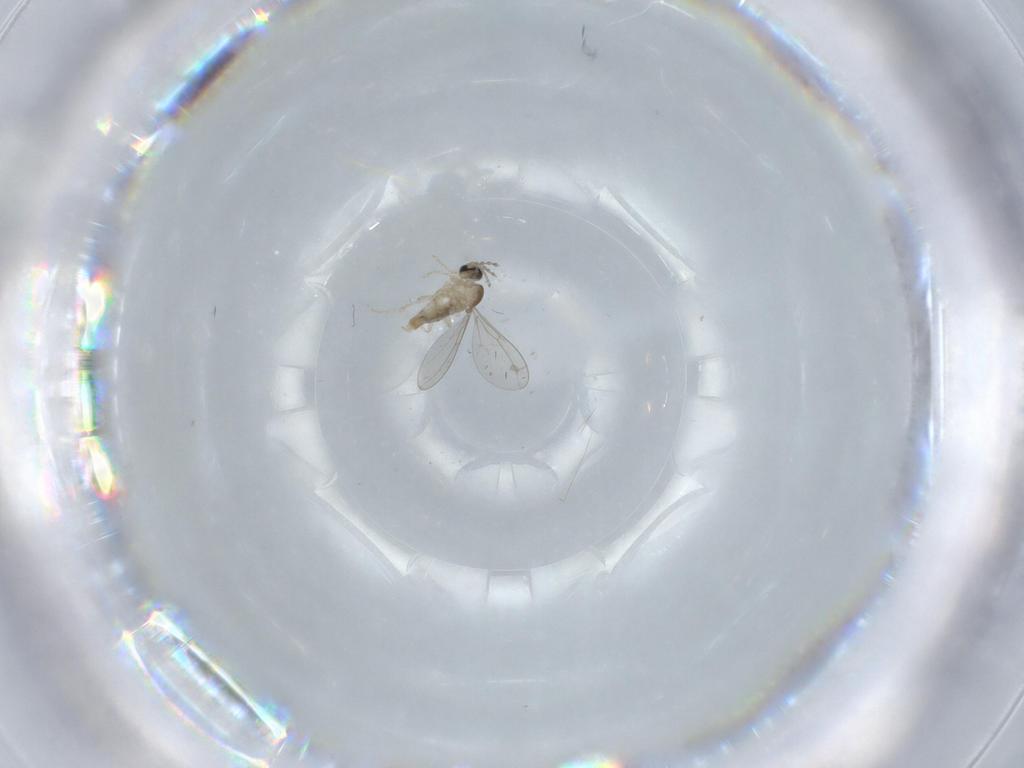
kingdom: Animalia
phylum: Arthropoda
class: Insecta
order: Diptera
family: Cecidomyiidae
